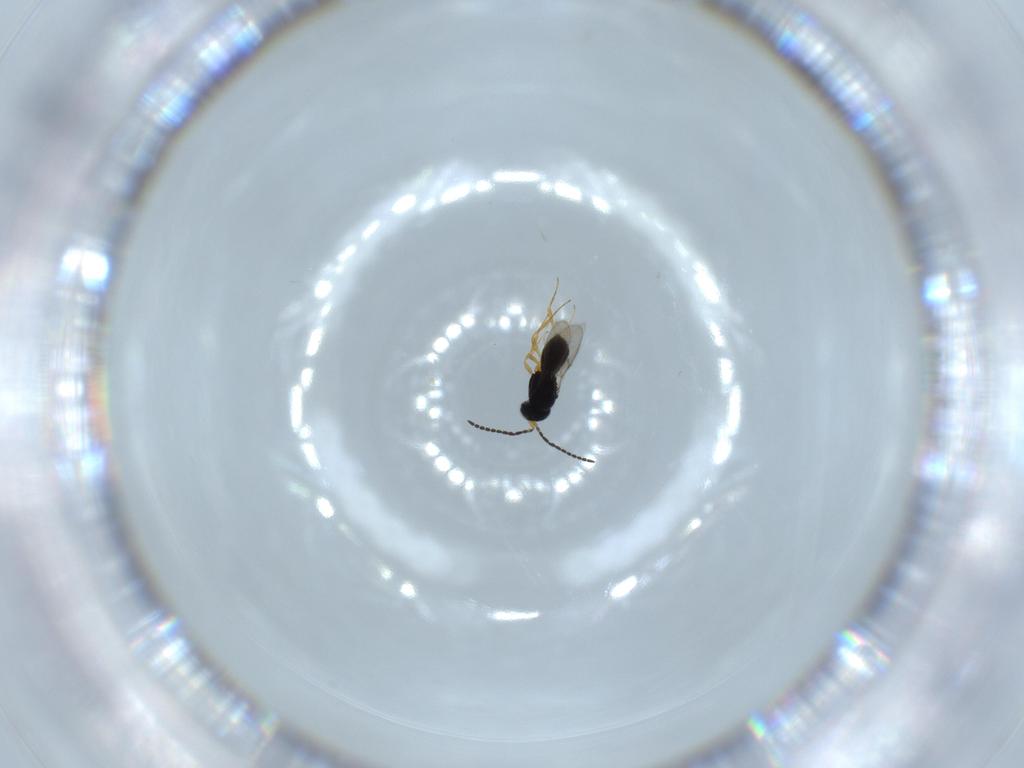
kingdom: Animalia
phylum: Arthropoda
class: Insecta
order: Hymenoptera
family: Scelionidae
